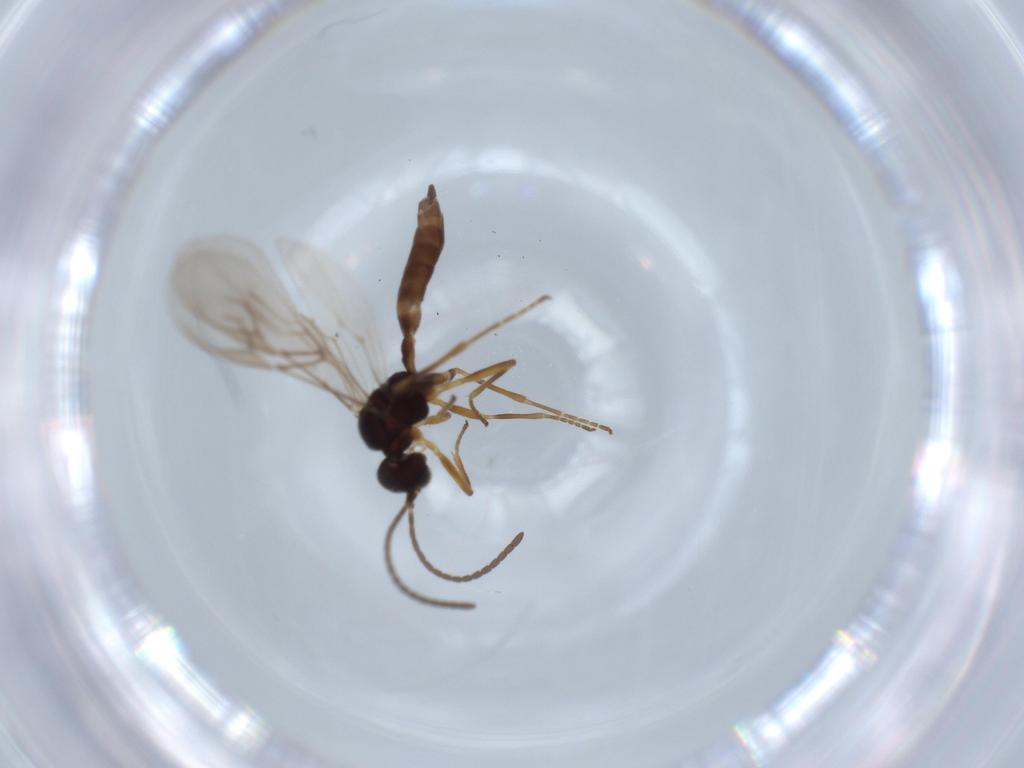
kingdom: Animalia
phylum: Arthropoda
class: Insecta
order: Hymenoptera
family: Braconidae
